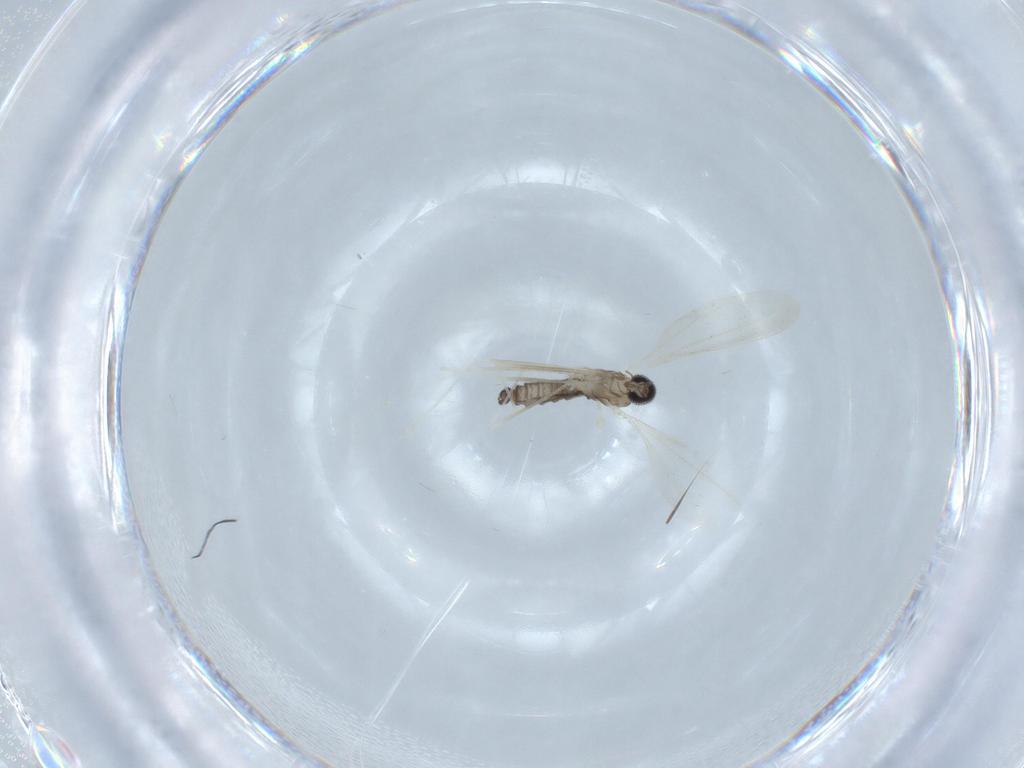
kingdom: Animalia
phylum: Arthropoda
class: Insecta
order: Diptera
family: Cecidomyiidae
